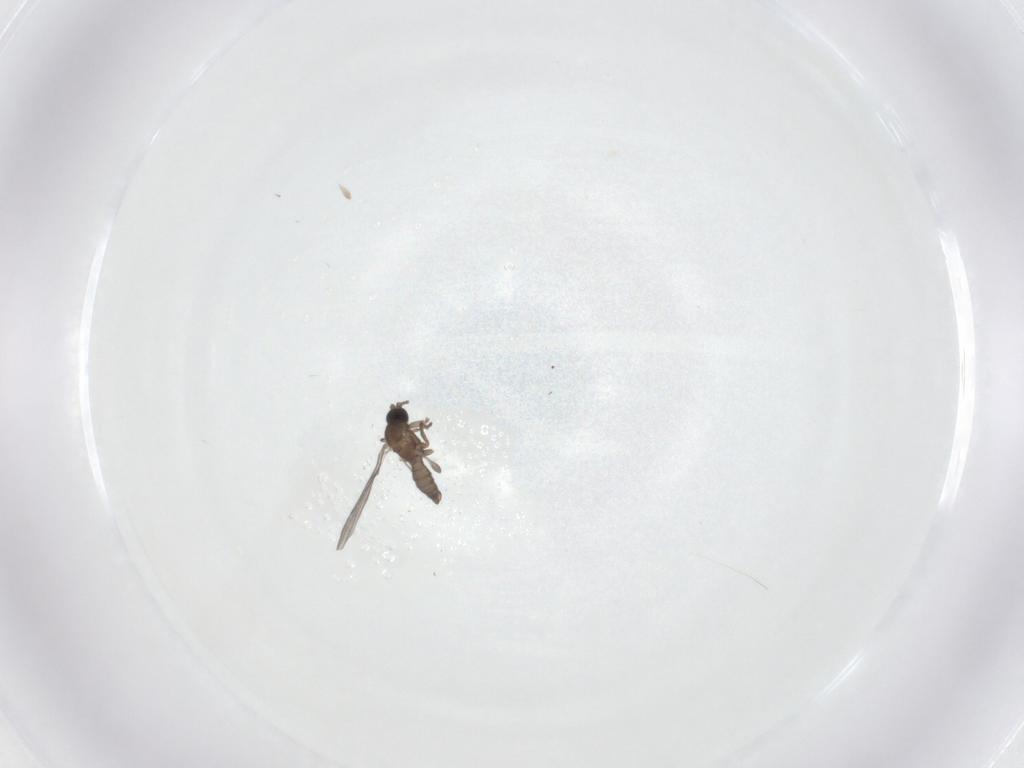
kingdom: Animalia
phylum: Arthropoda
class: Insecta
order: Diptera
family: Sciaridae
